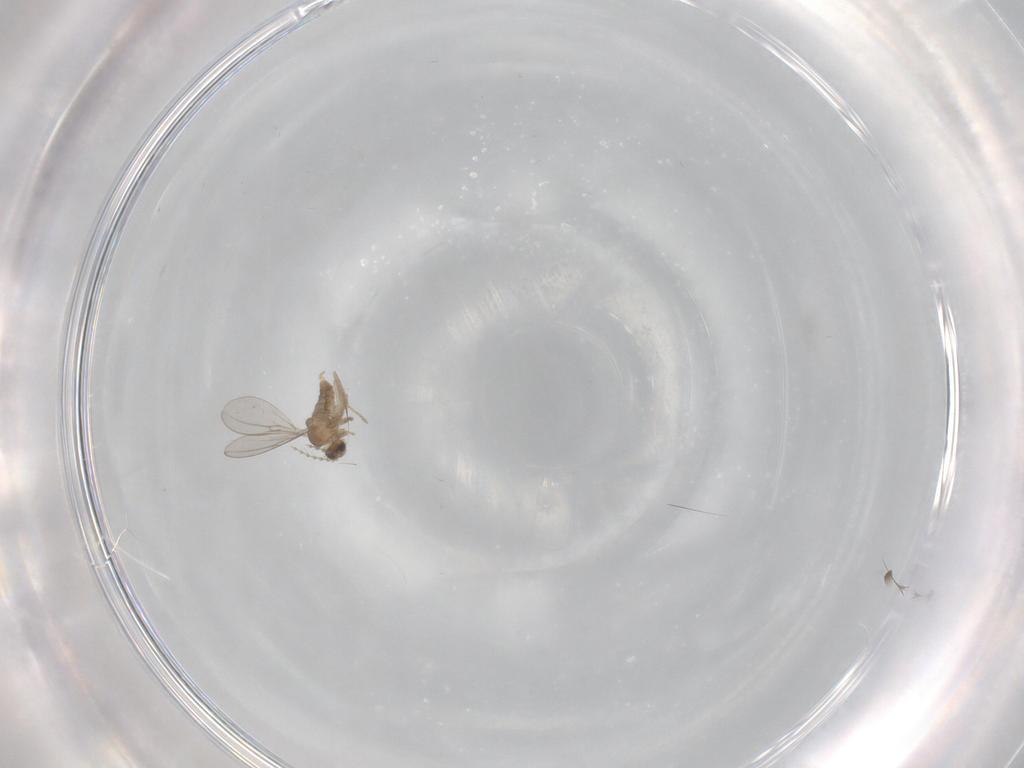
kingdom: Animalia
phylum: Arthropoda
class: Insecta
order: Diptera
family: Cecidomyiidae
